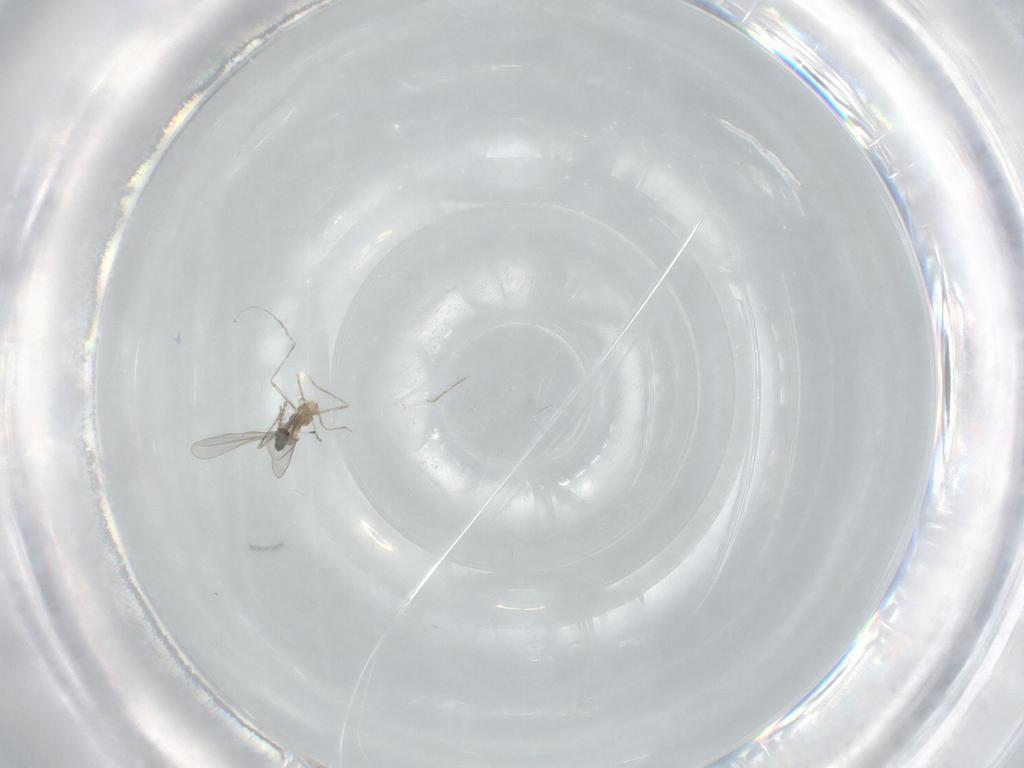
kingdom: Animalia
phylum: Arthropoda
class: Insecta
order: Diptera
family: Cecidomyiidae
